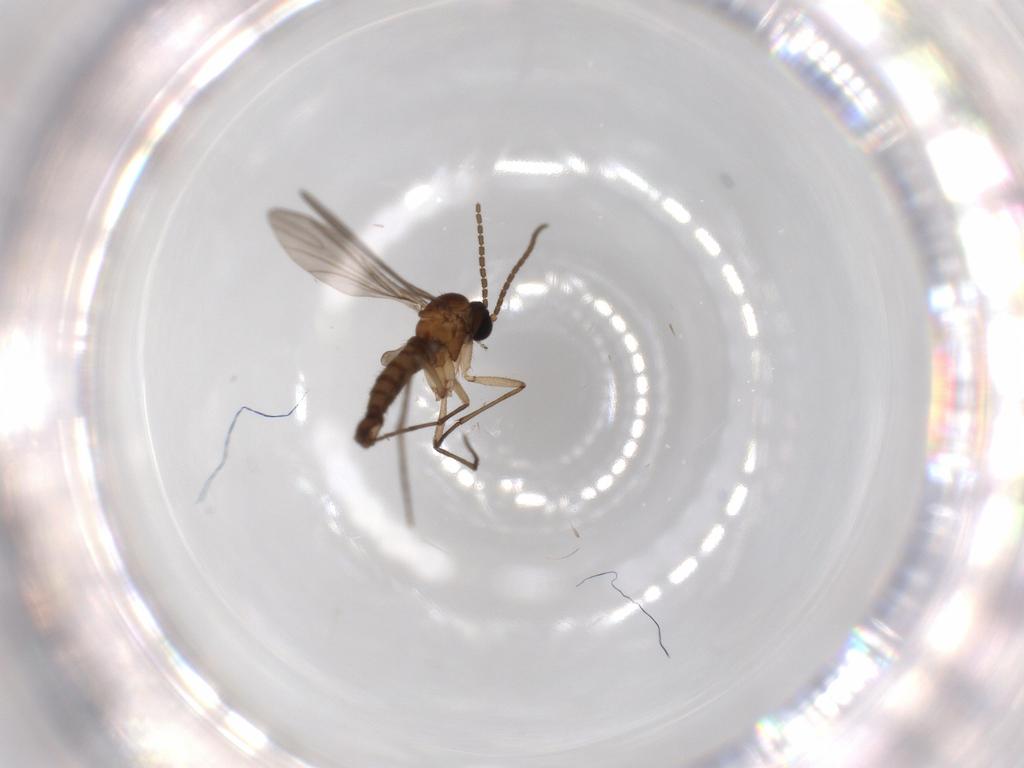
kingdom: Animalia
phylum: Arthropoda
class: Insecta
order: Diptera
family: Sciaridae
